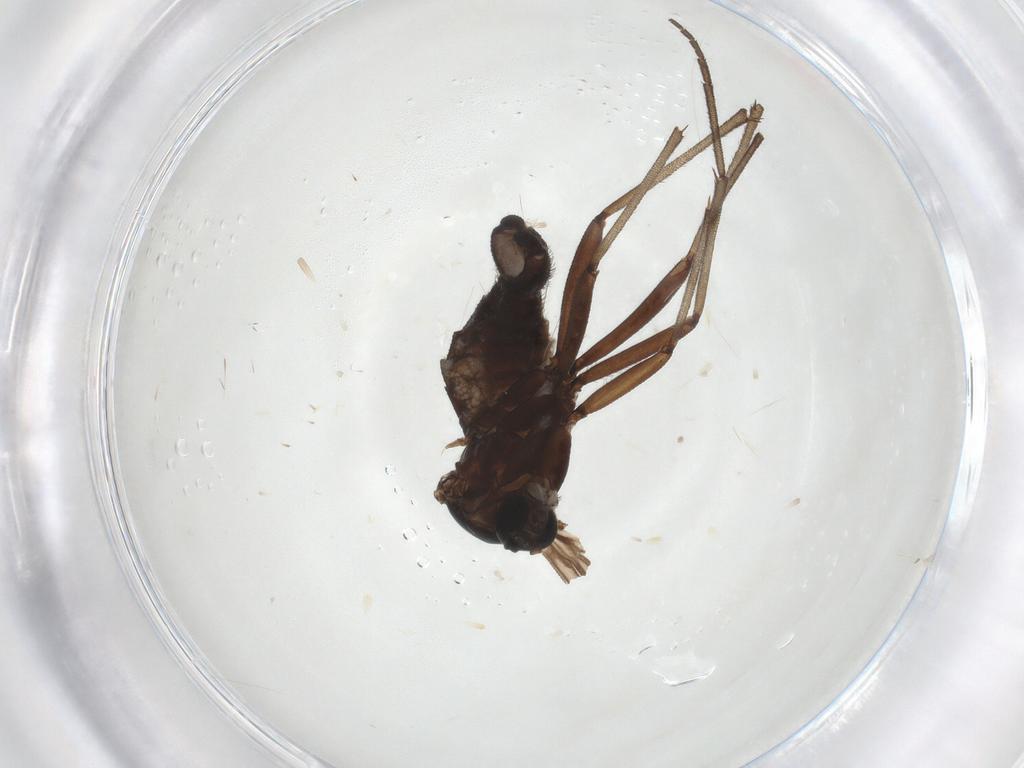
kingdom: Animalia
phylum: Arthropoda
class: Insecta
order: Diptera
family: Sciaridae
